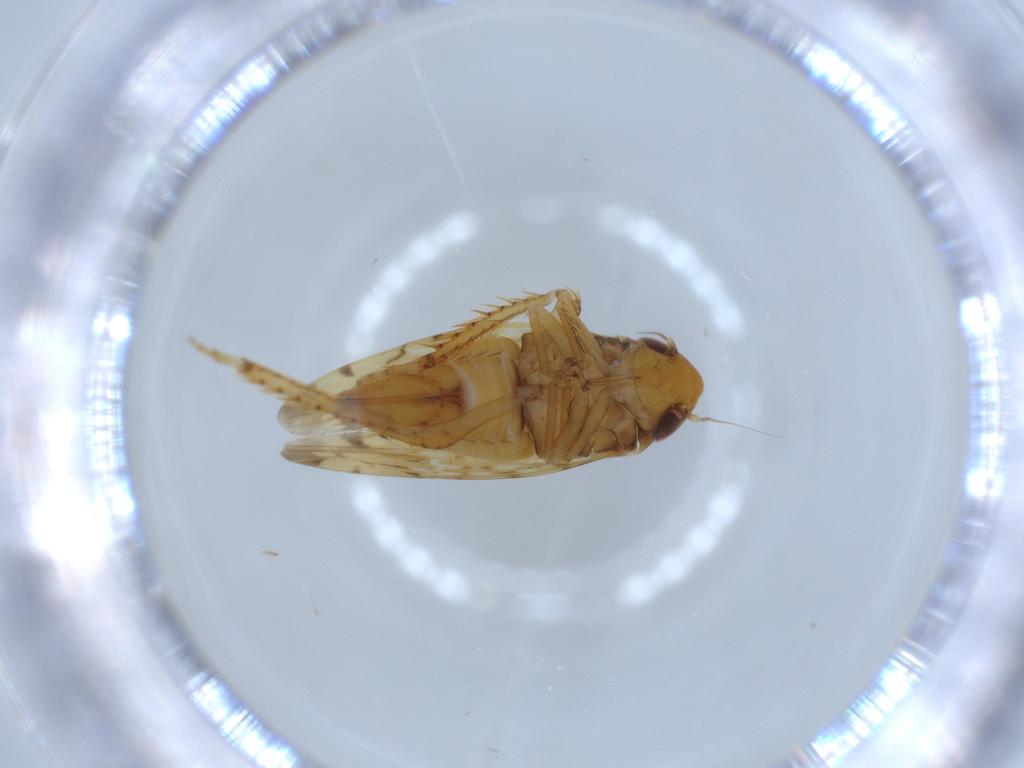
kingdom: Animalia
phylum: Arthropoda
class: Insecta
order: Hemiptera
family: Cicadellidae
